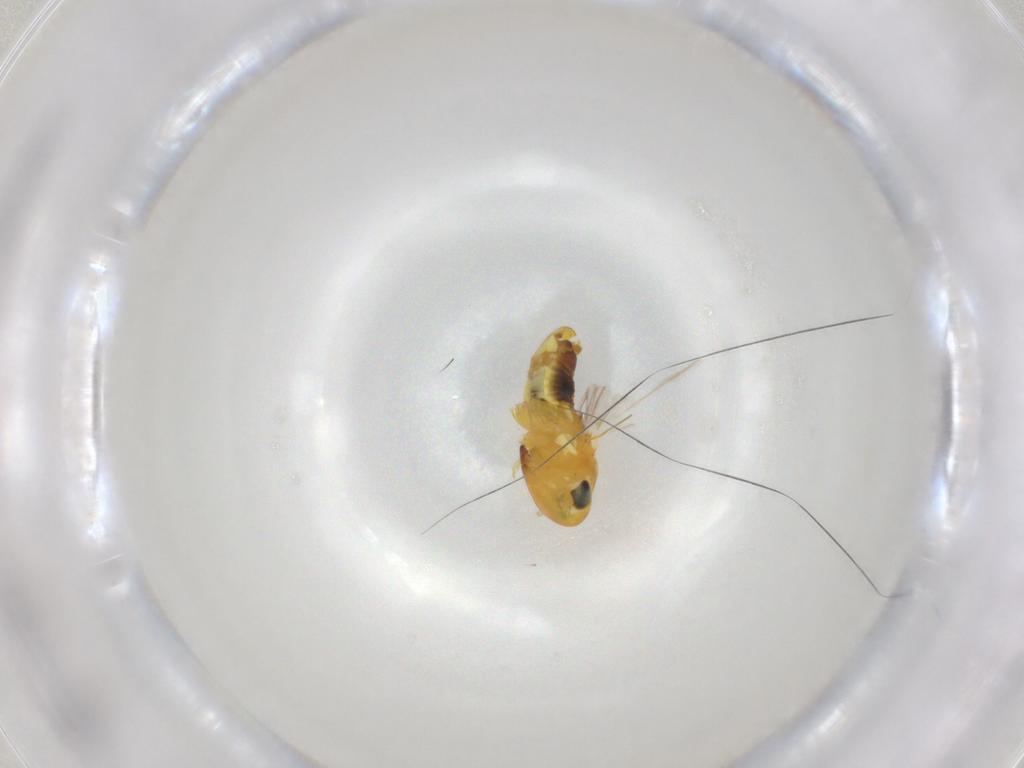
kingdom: Animalia
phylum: Arthropoda
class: Insecta
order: Hemiptera
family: Cicadellidae
